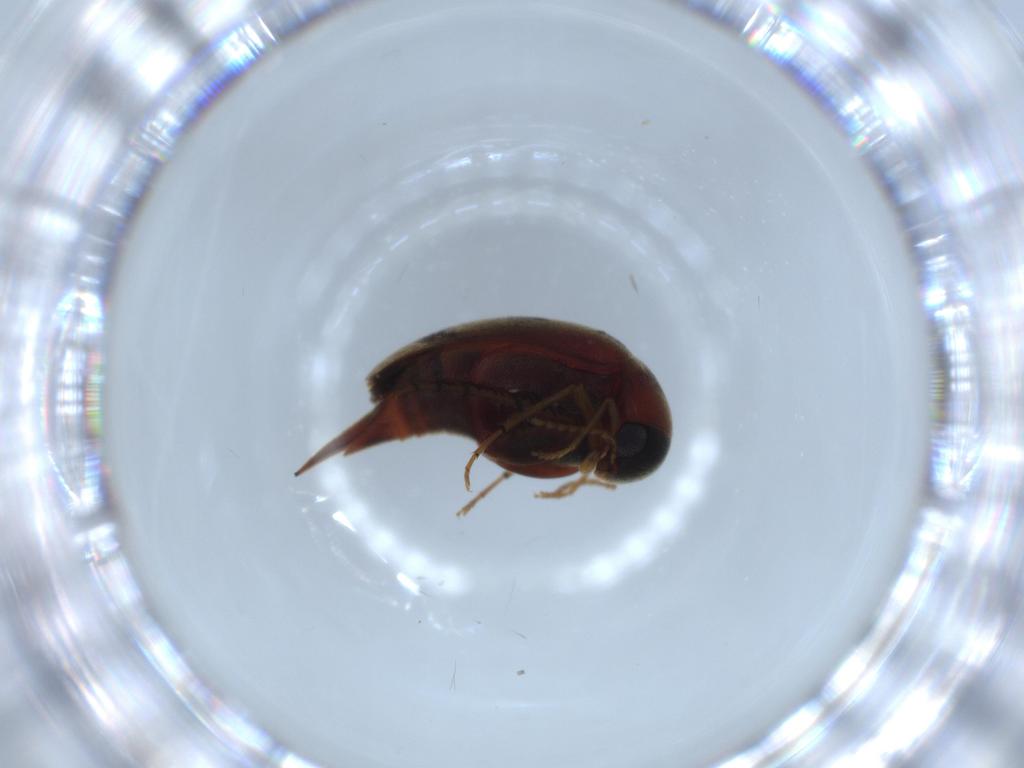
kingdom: Animalia
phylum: Arthropoda
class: Insecta
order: Coleoptera
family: Mordellidae
